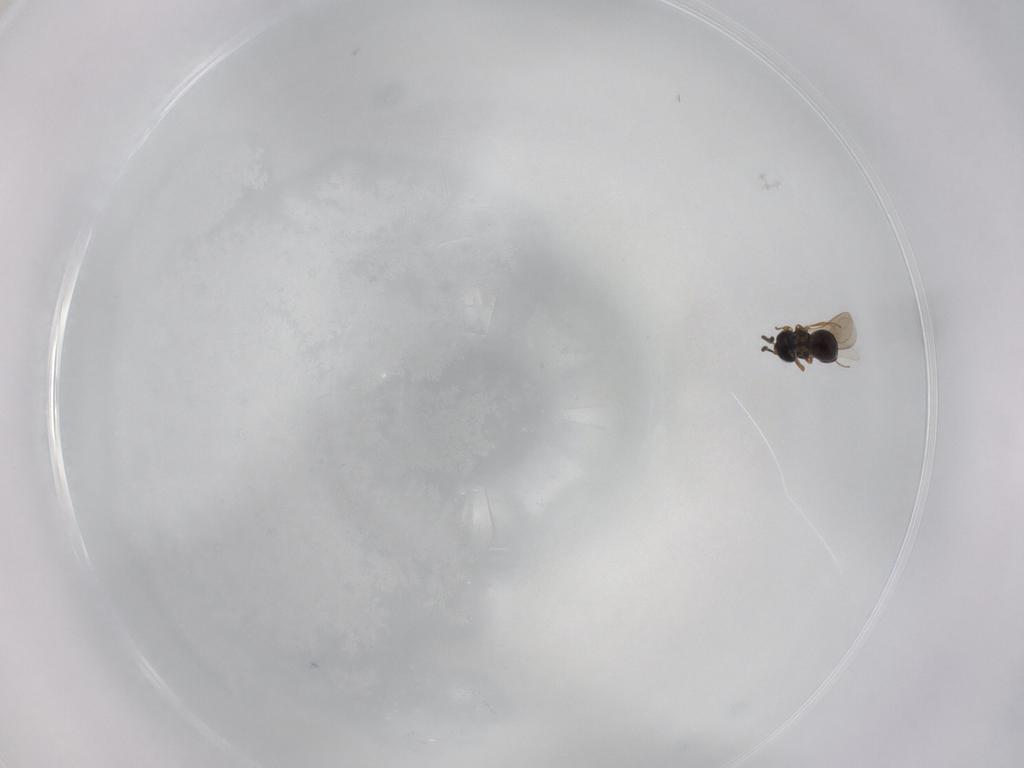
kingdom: Animalia
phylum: Arthropoda
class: Insecta
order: Hymenoptera
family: Scelionidae
